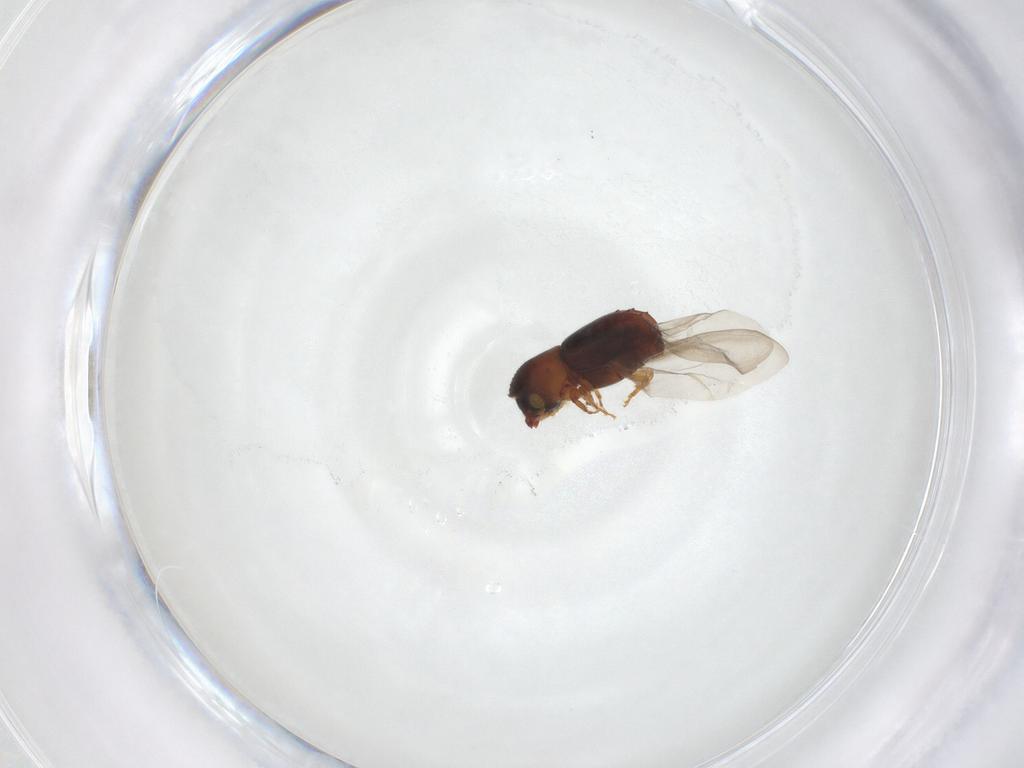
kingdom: Animalia
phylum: Arthropoda
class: Insecta
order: Coleoptera
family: Curculionidae
